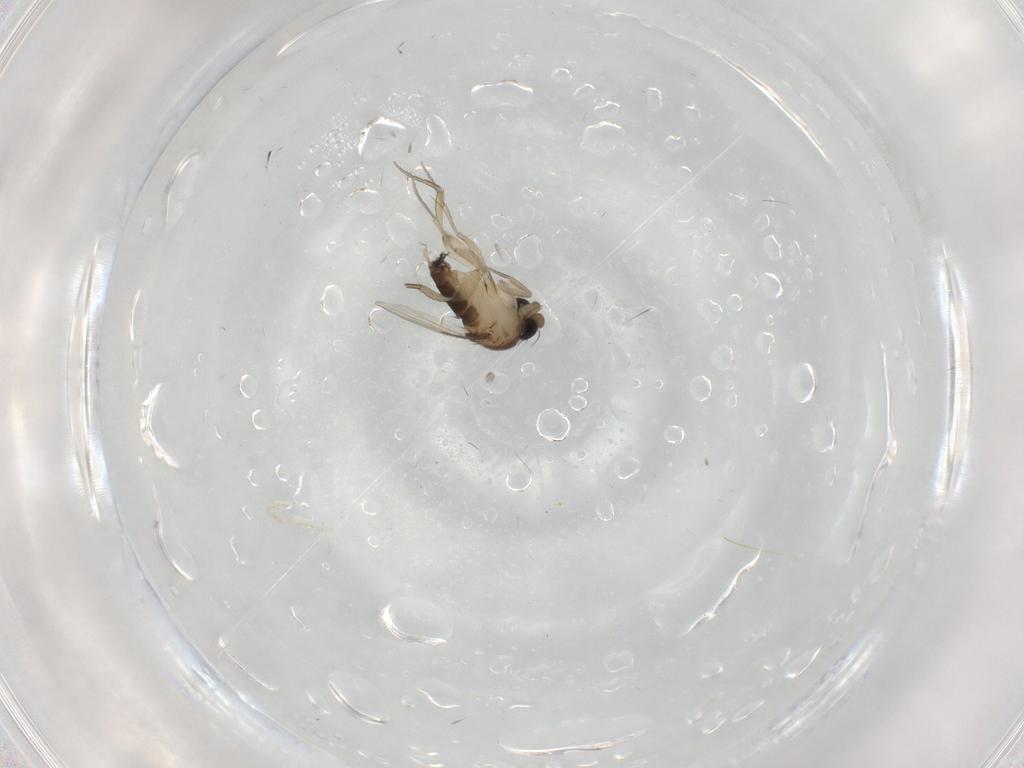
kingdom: Animalia
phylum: Arthropoda
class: Insecta
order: Diptera
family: Phoridae
